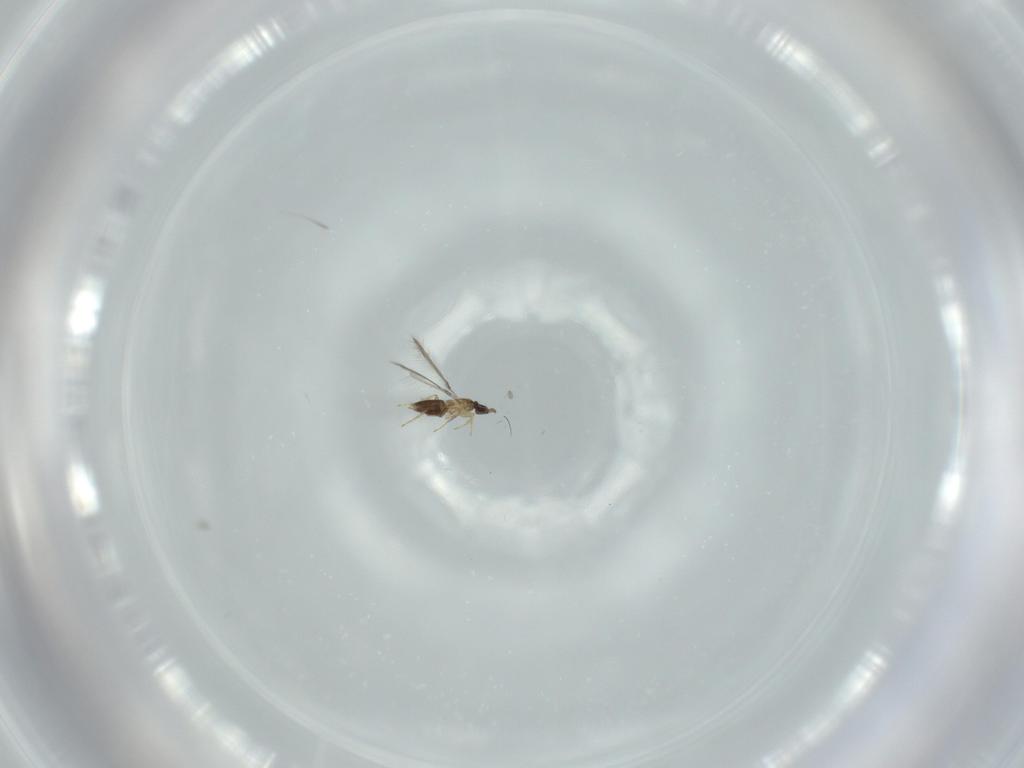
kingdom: Animalia
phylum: Arthropoda
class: Insecta
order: Hymenoptera
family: Mymaridae
